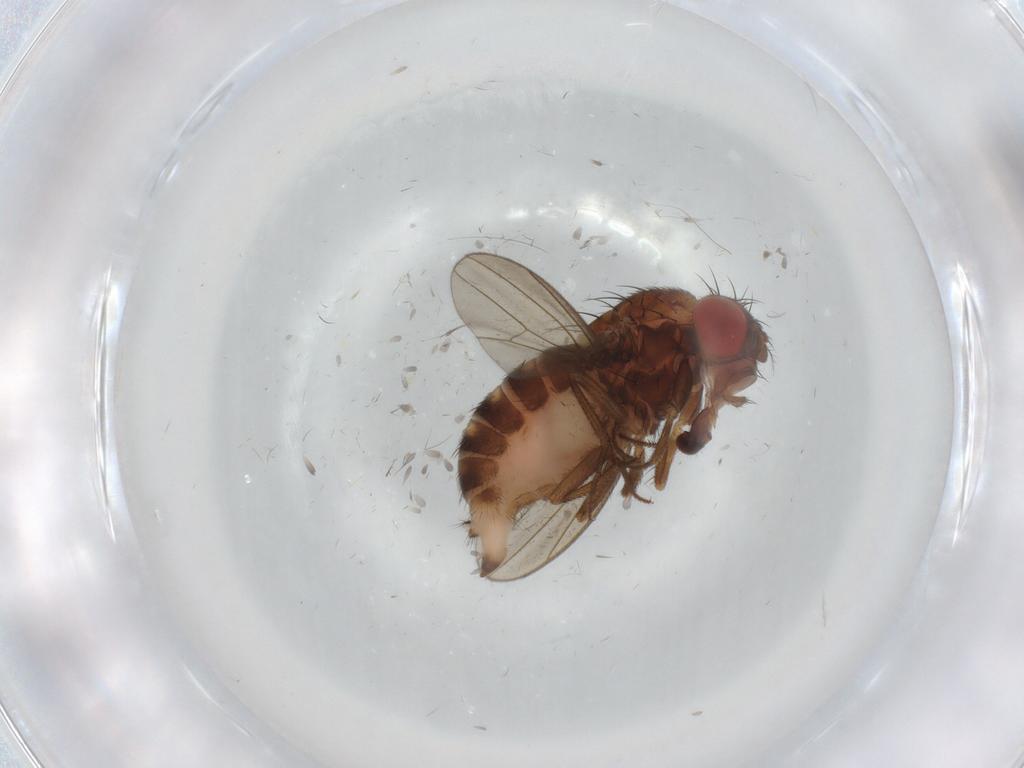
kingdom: Animalia
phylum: Arthropoda
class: Insecta
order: Diptera
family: Drosophilidae
